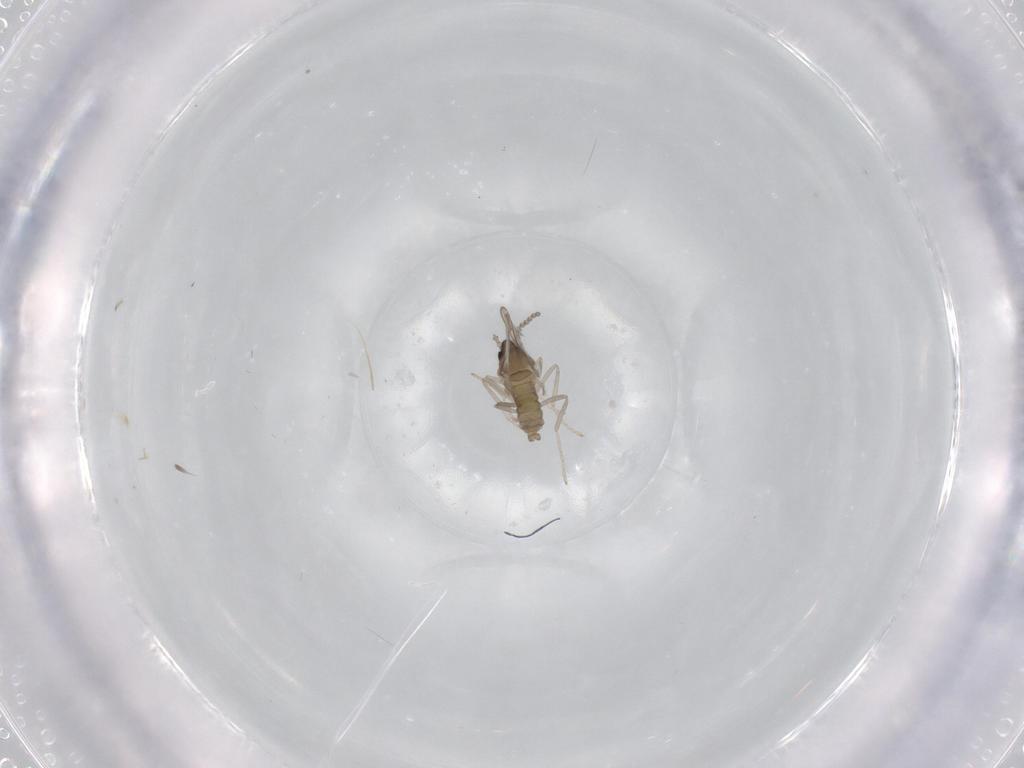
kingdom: Animalia
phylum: Arthropoda
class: Insecta
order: Diptera
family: Cecidomyiidae
